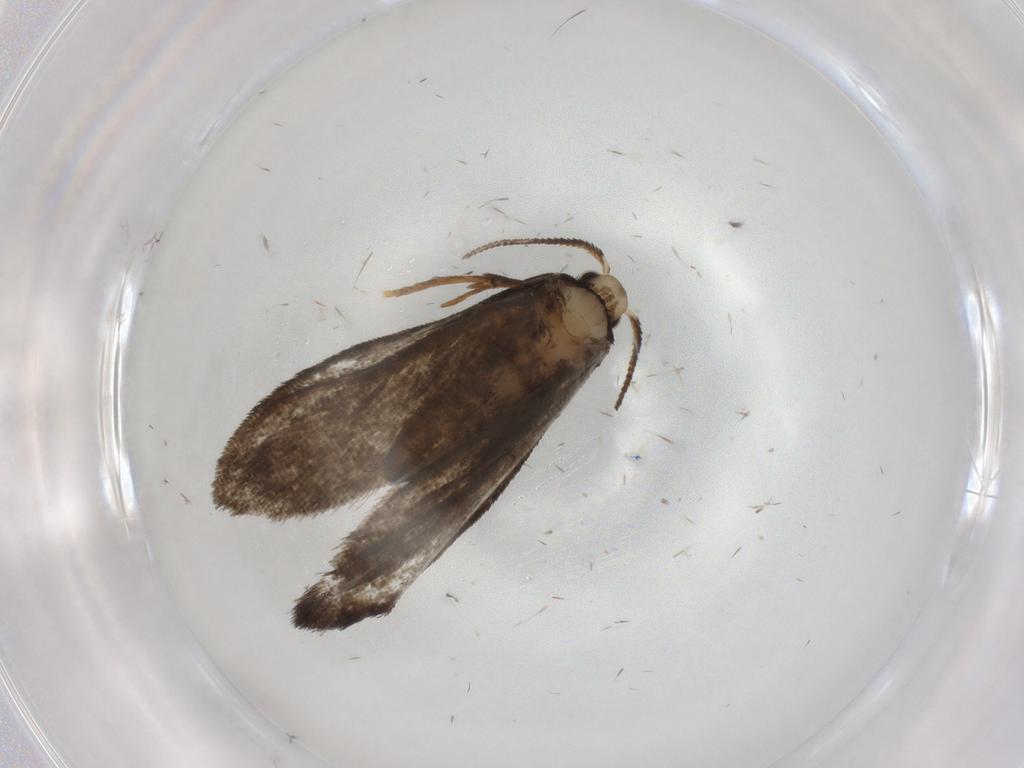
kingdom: Animalia
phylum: Arthropoda
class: Insecta
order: Lepidoptera
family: Psychidae
